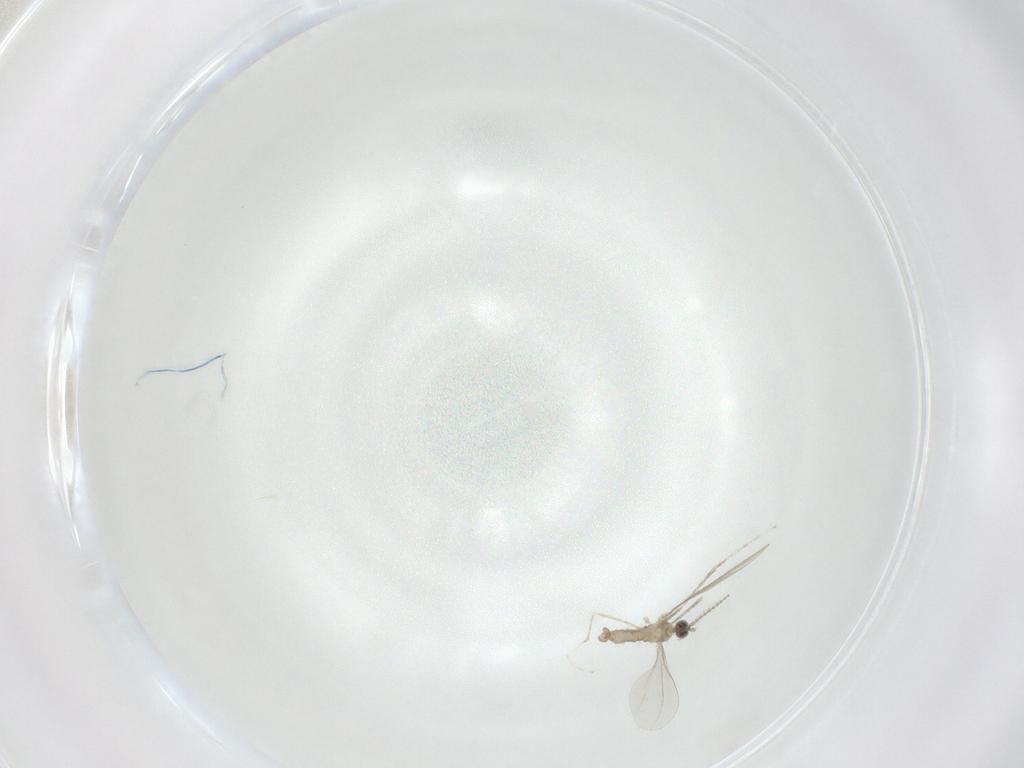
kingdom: Animalia
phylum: Arthropoda
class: Insecta
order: Diptera
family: Cecidomyiidae
